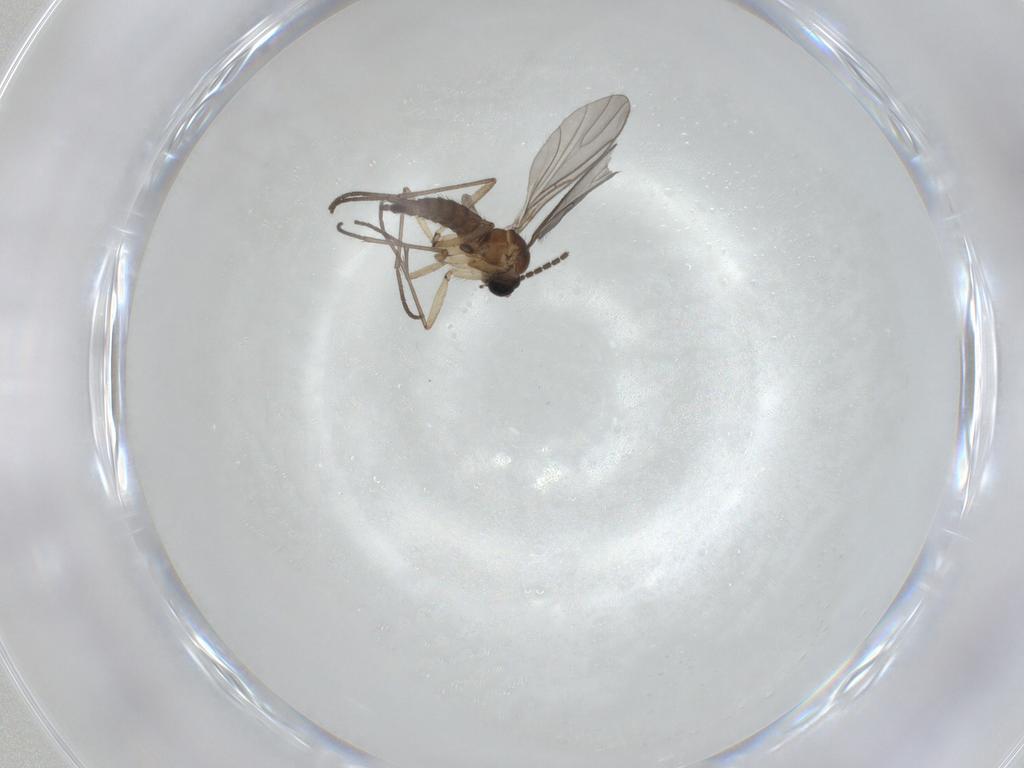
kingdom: Animalia
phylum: Arthropoda
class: Insecta
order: Diptera
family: Sciaridae
